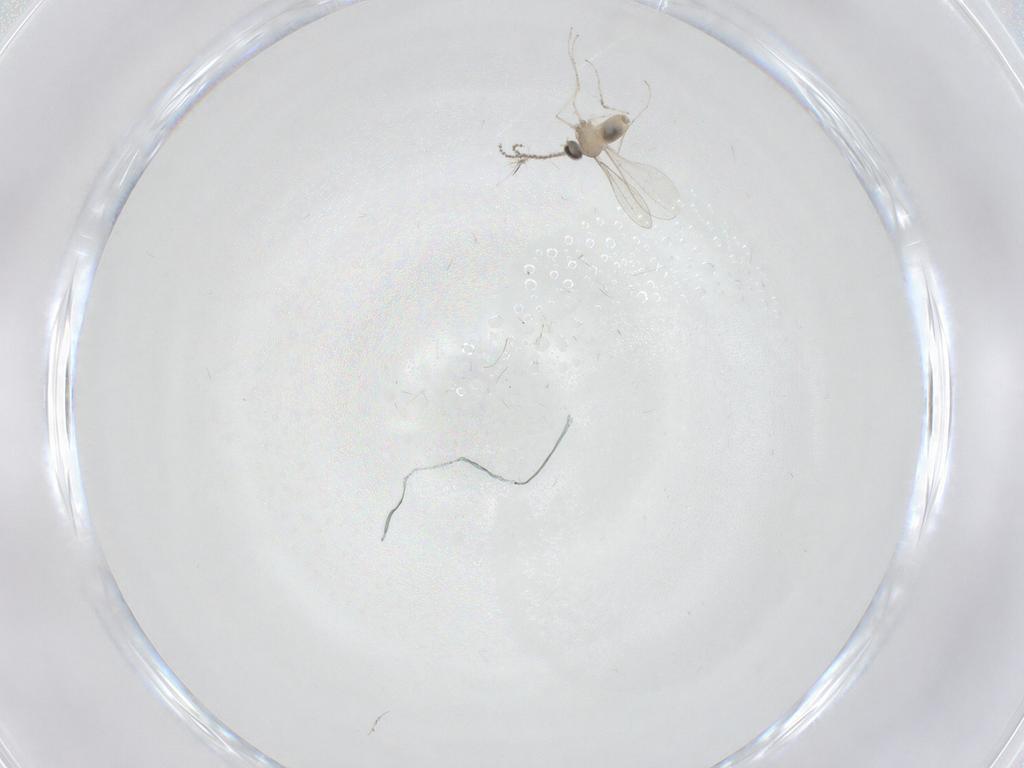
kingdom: Animalia
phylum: Arthropoda
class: Insecta
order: Diptera
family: Cecidomyiidae
